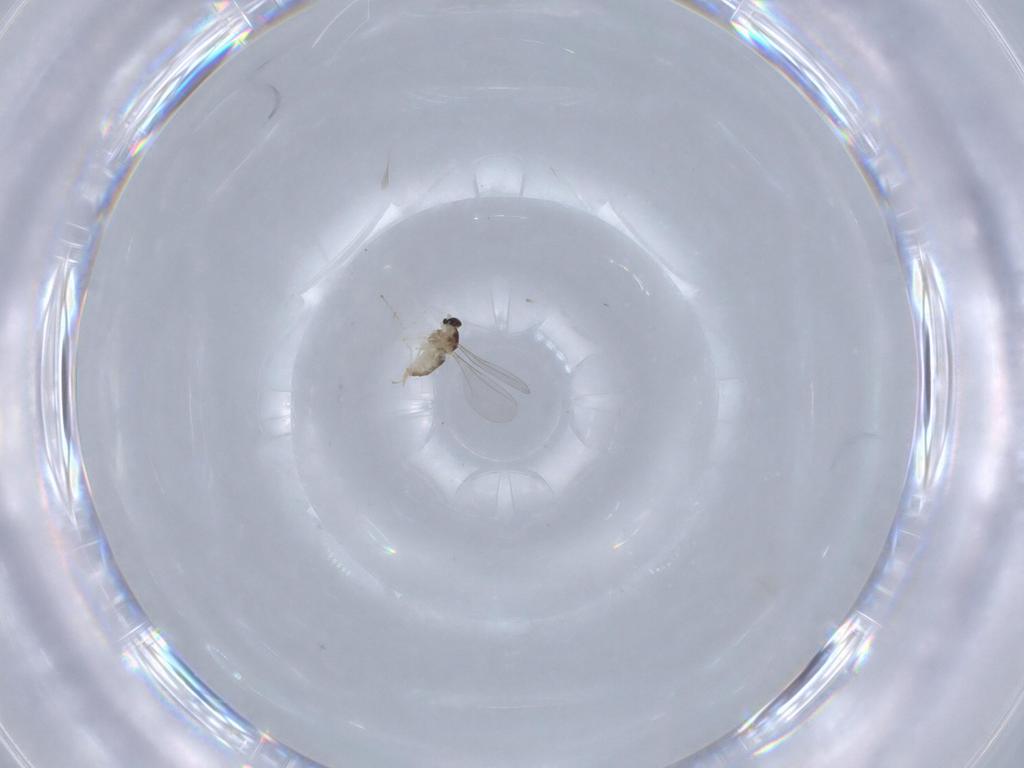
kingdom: Animalia
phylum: Arthropoda
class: Insecta
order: Diptera
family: Cecidomyiidae
